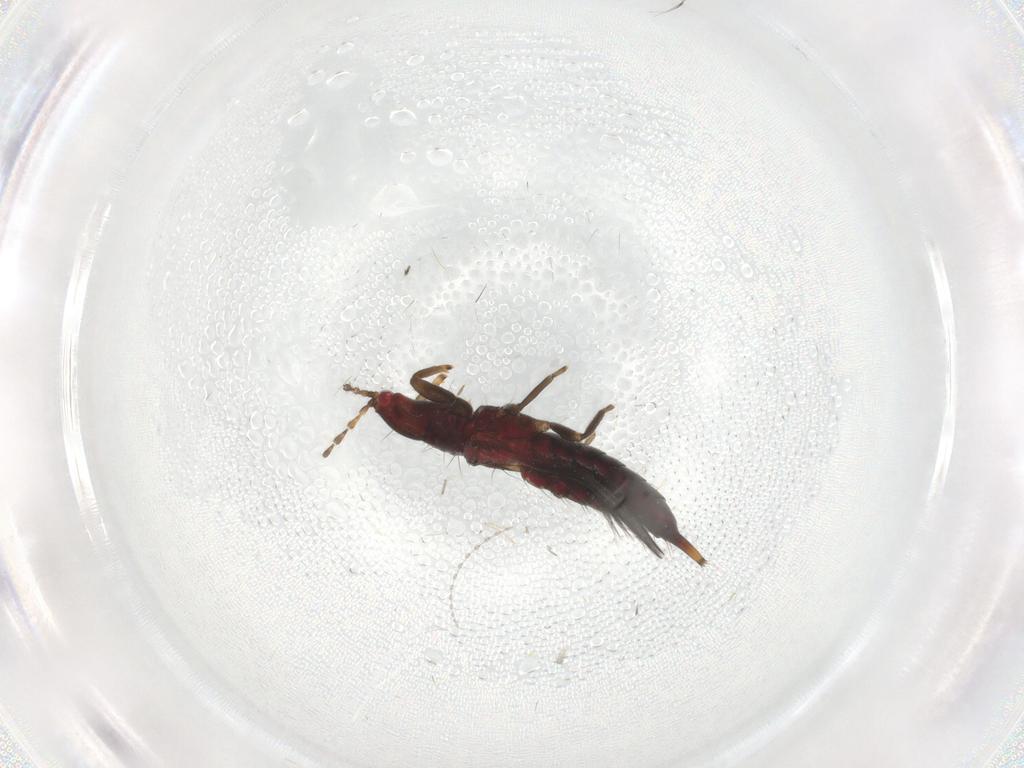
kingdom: Animalia
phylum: Arthropoda
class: Insecta
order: Thysanoptera
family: Phlaeothripidae
